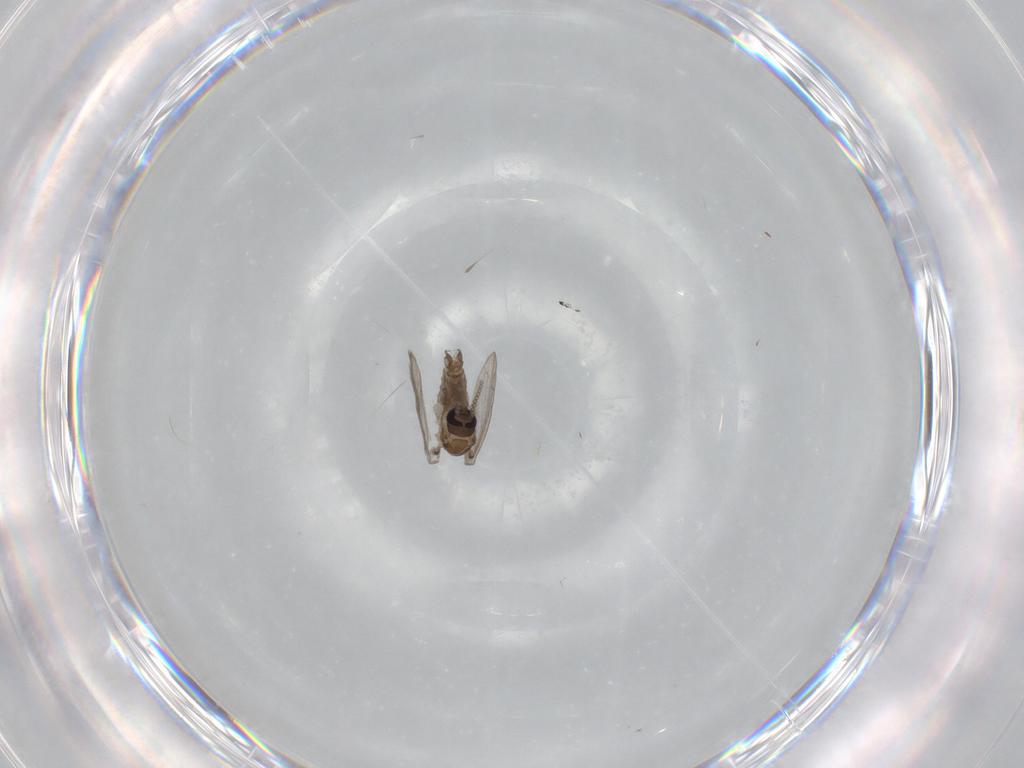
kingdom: Animalia
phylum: Arthropoda
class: Insecta
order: Diptera
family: Psychodidae
